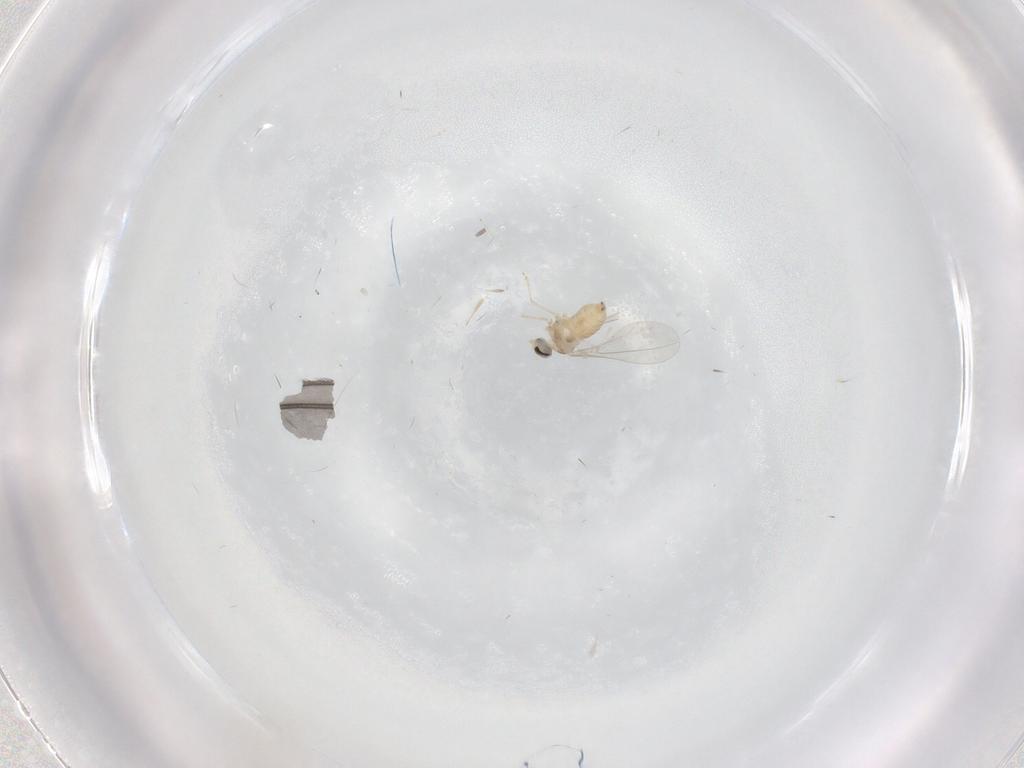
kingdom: Animalia
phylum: Arthropoda
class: Insecta
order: Diptera
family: Cecidomyiidae
